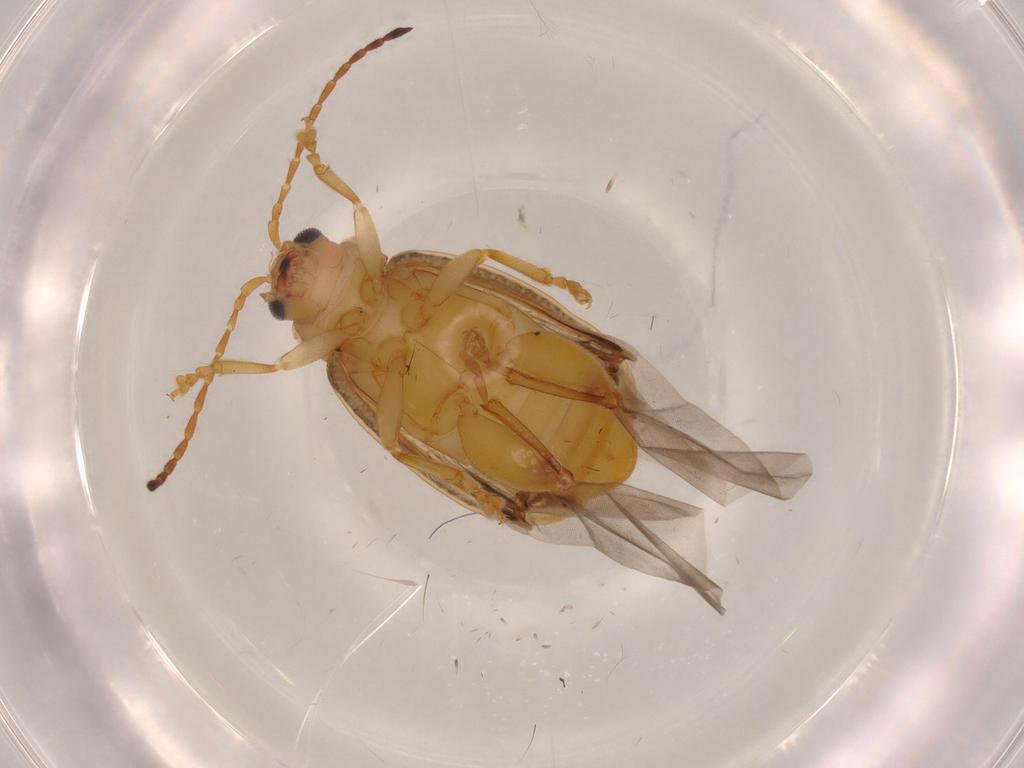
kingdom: Animalia
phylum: Arthropoda
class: Insecta
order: Coleoptera
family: Chrysomelidae
